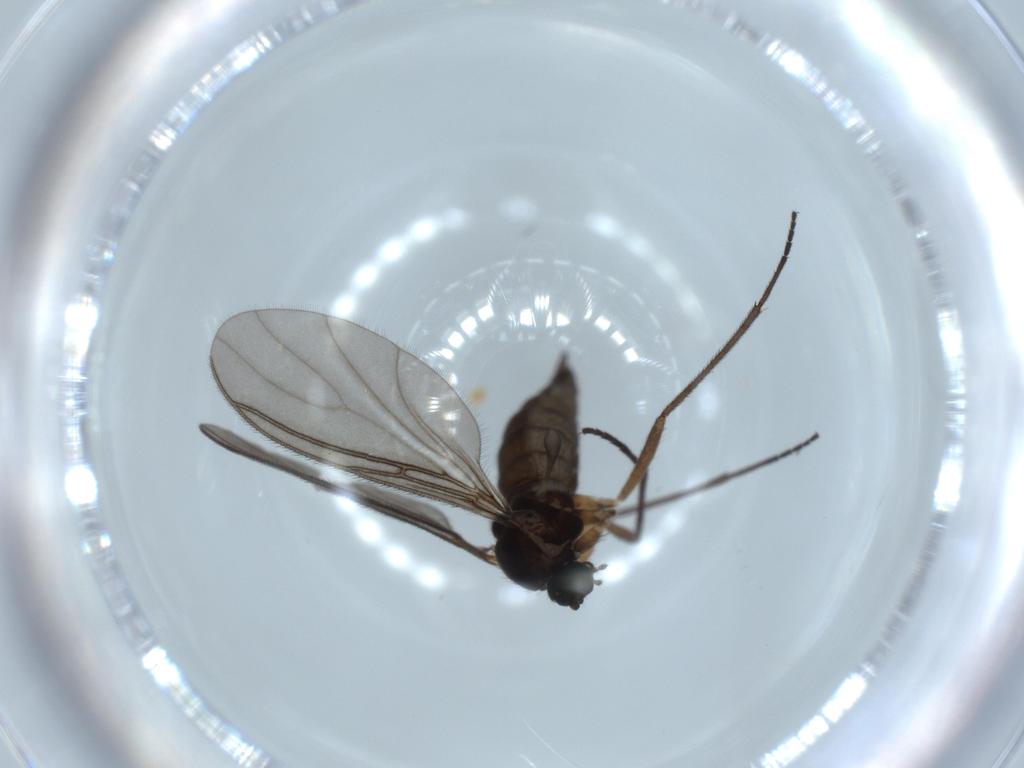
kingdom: Animalia
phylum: Arthropoda
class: Insecta
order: Diptera
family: Sciaridae
